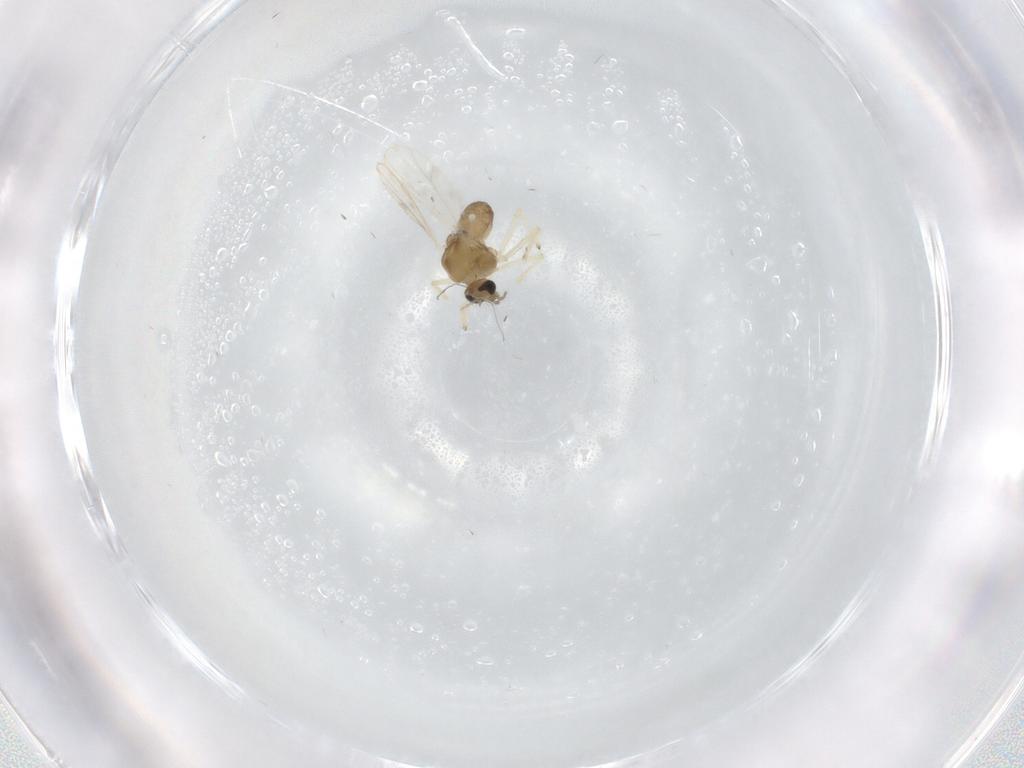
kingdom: Animalia
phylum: Arthropoda
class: Insecta
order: Diptera
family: Chironomidae
